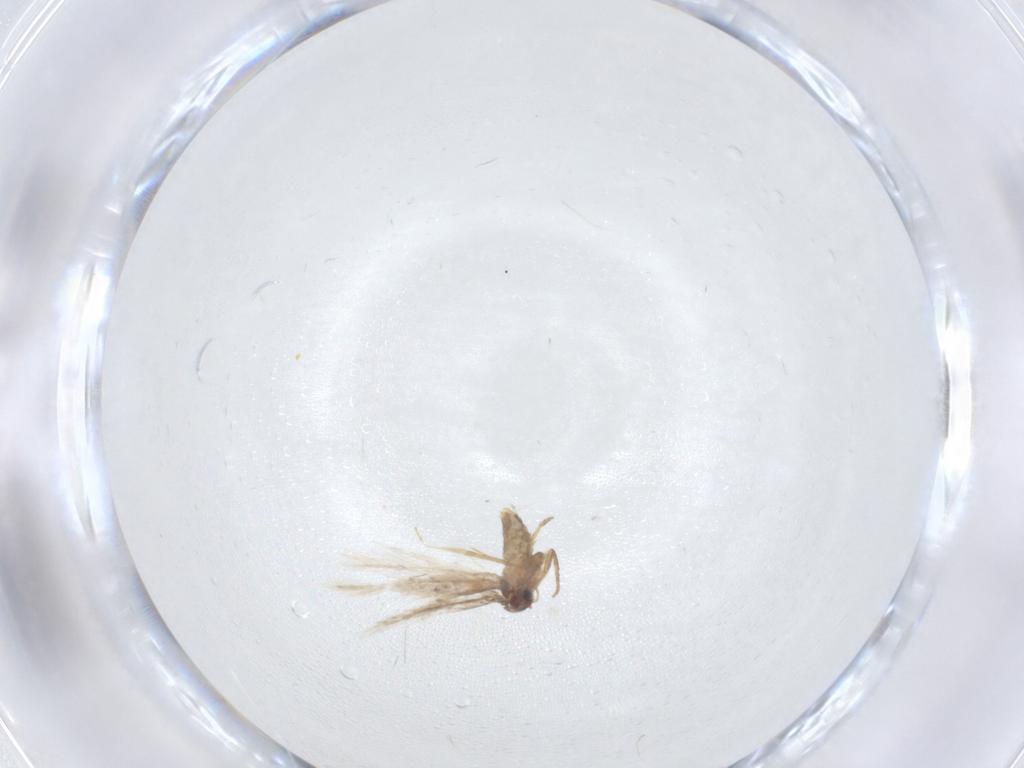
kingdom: Animalia
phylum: Arthropoda
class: Insecta
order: Lepidoptera
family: Nepticulidae
